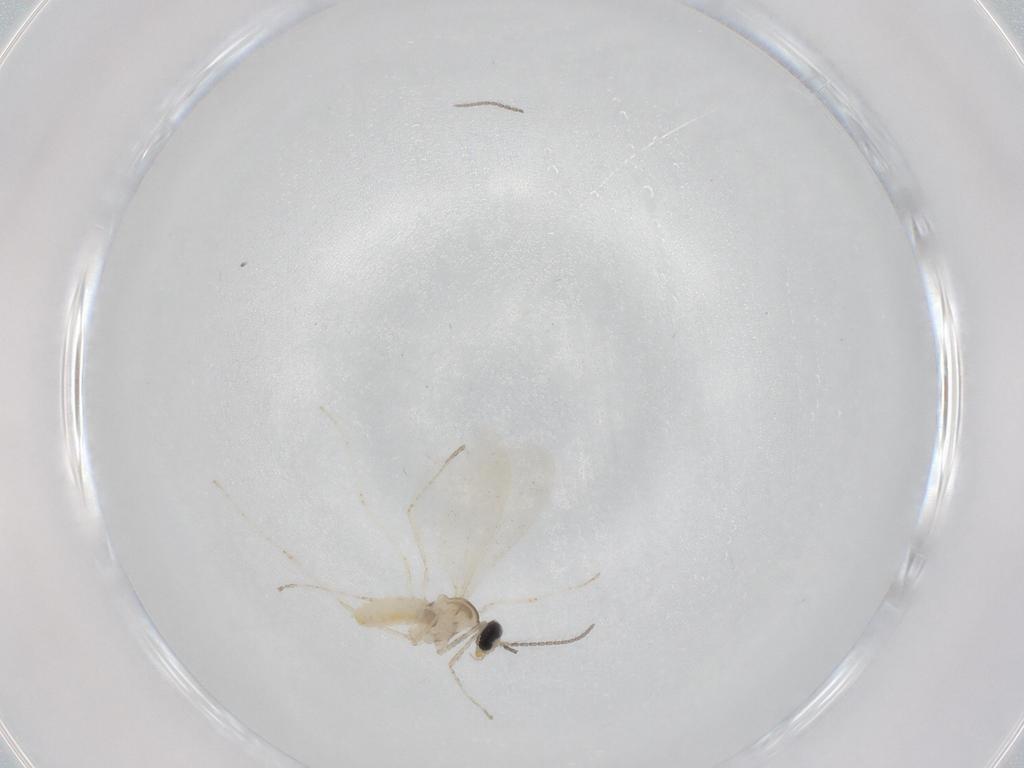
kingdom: Animalia
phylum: Arthropoda
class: Insecta
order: Diptera
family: Cecidomyiidae
